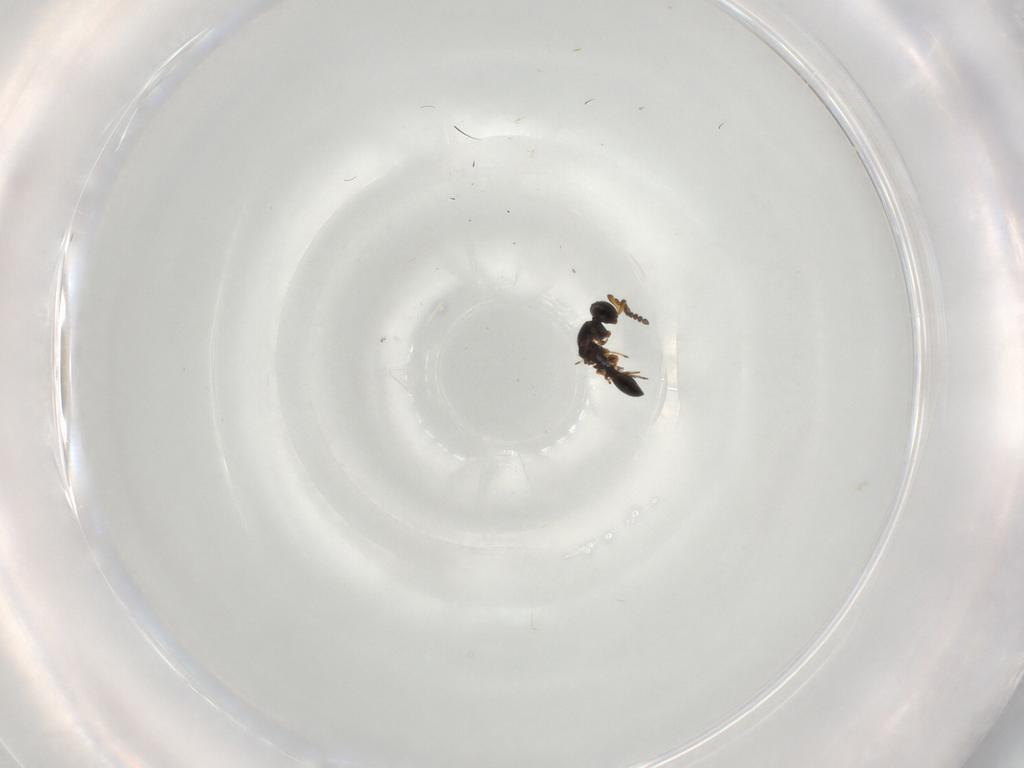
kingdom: Animalia
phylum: Arthropoda
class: Insecta
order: Hymenoptera
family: Platygastridae
